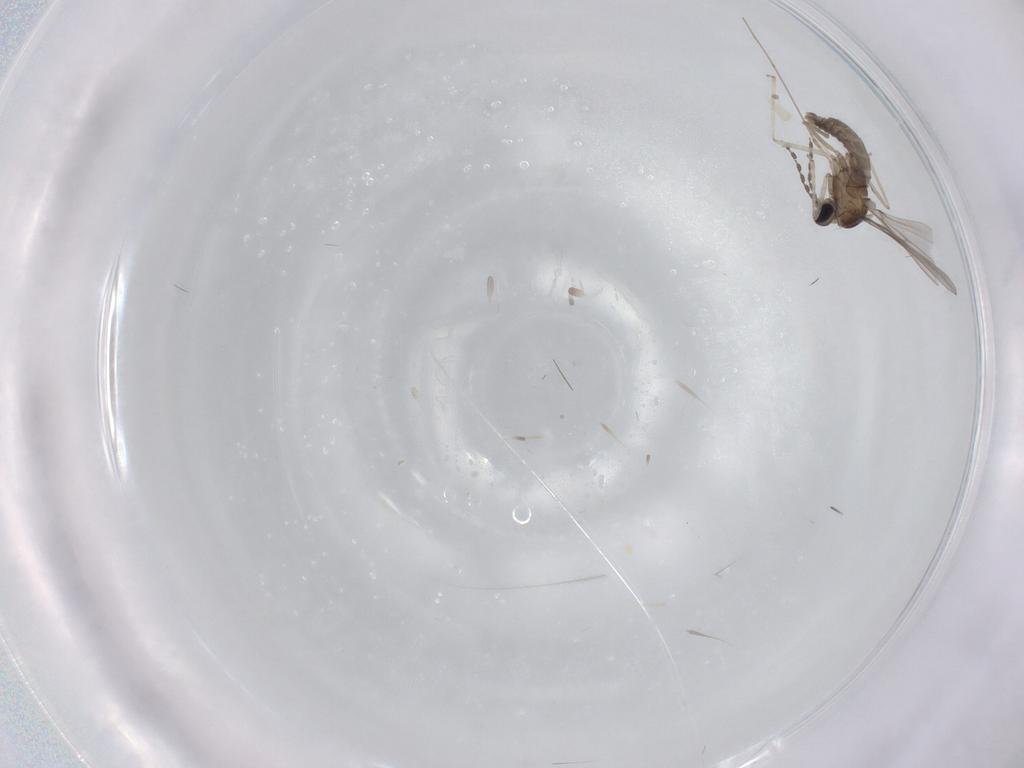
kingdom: Animalia
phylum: Arthropoda
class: Insecta
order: Diptera
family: Cecidomyiidae
